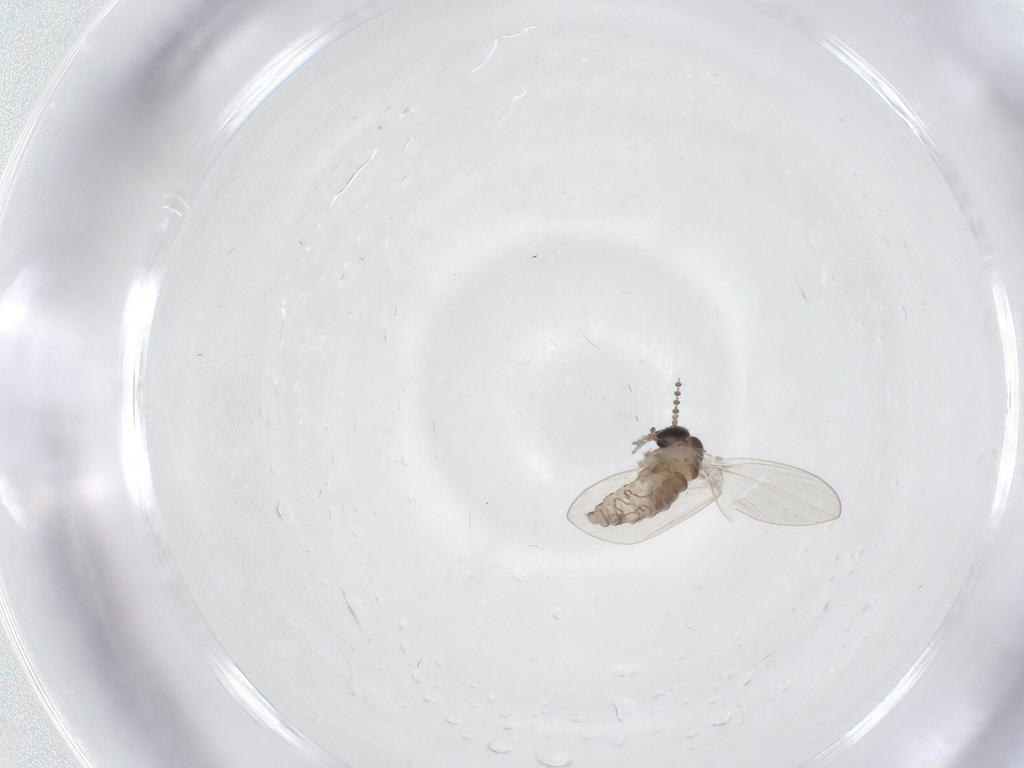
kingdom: Animalia
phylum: Arthropoda
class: Insecta
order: Diptera
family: Psychodidae
